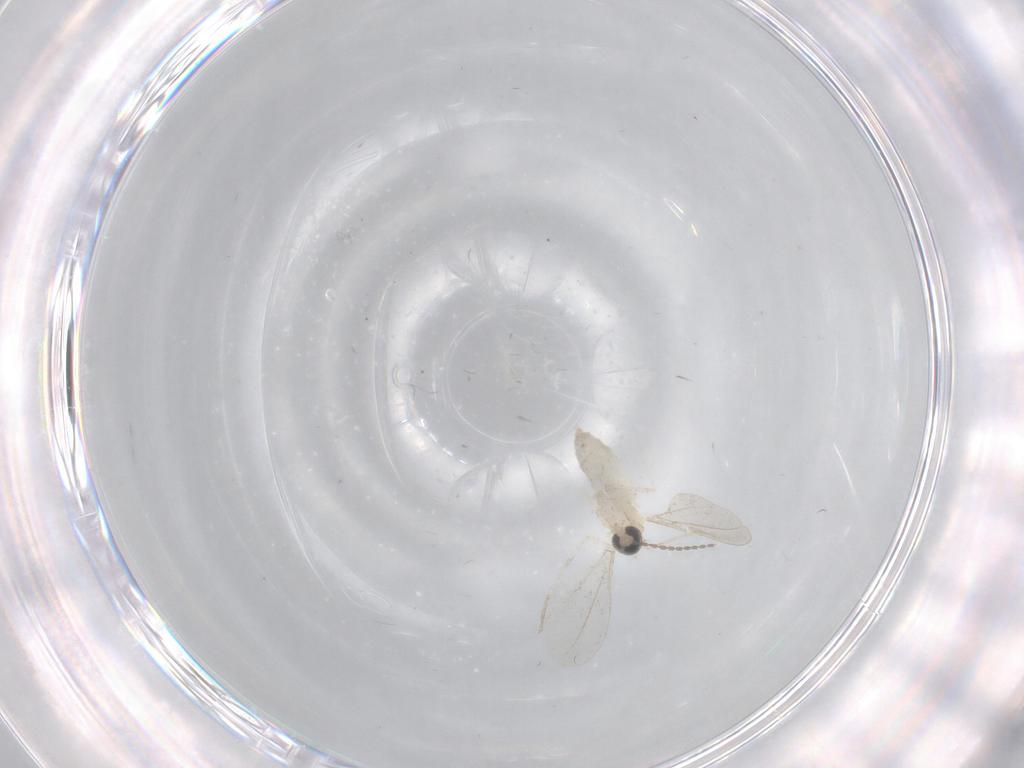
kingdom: Animalia
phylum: Arthropoda
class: Insecta
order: Diptera
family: Cecidomyiidae
